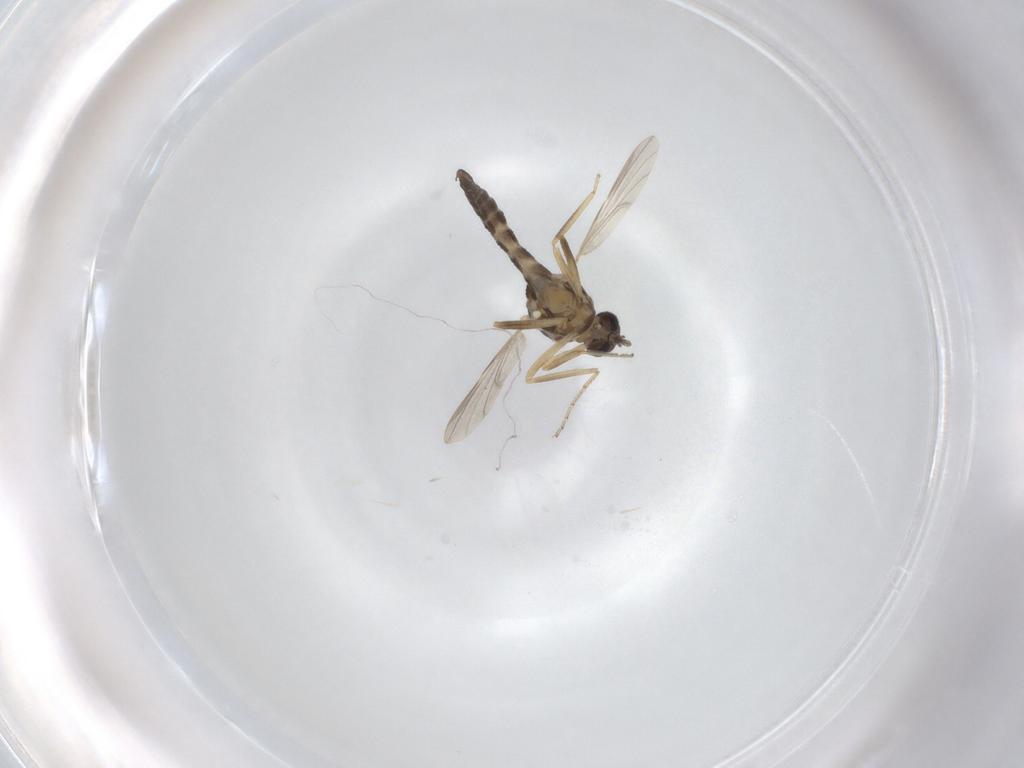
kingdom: Animalia
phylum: Arthropoda
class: Insecta
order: Diptera
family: Ceratopogonidae
